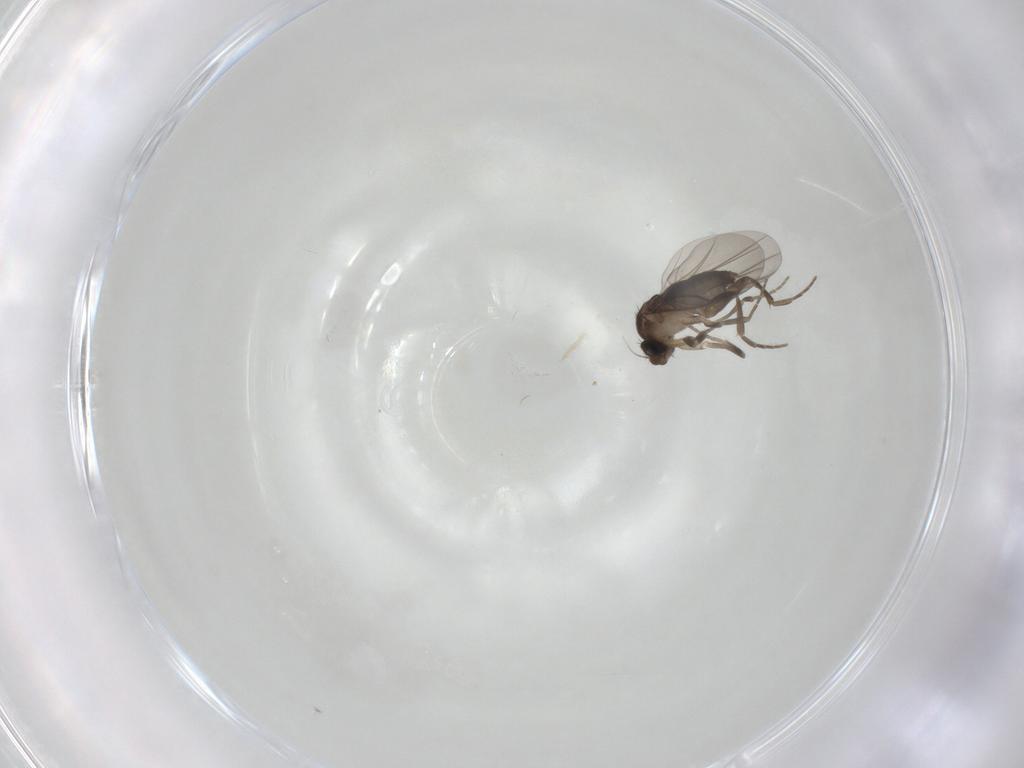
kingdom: Animalia
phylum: Arthropoda
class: Insecta
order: Diptera
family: Phoridae
